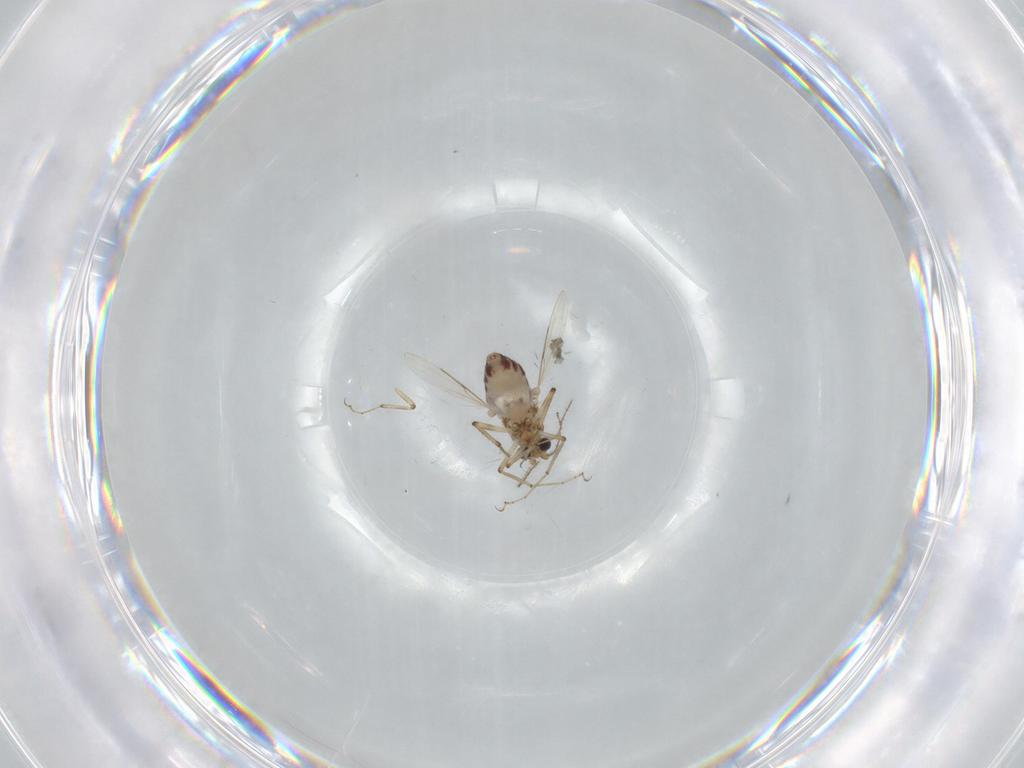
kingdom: Animalia
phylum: Arthropoda
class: Insecta
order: Diptera
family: Ceratopogonidae
